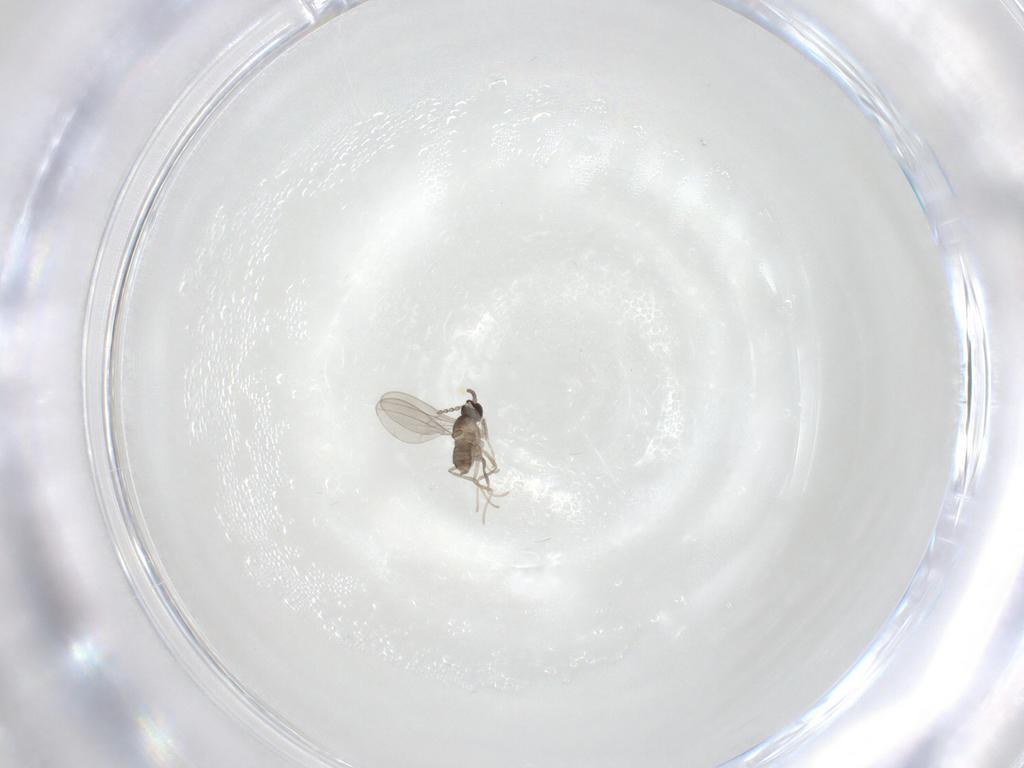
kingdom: Animalia
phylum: Arthropoda
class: Insecta
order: Diptera
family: Cecidomyiidae
